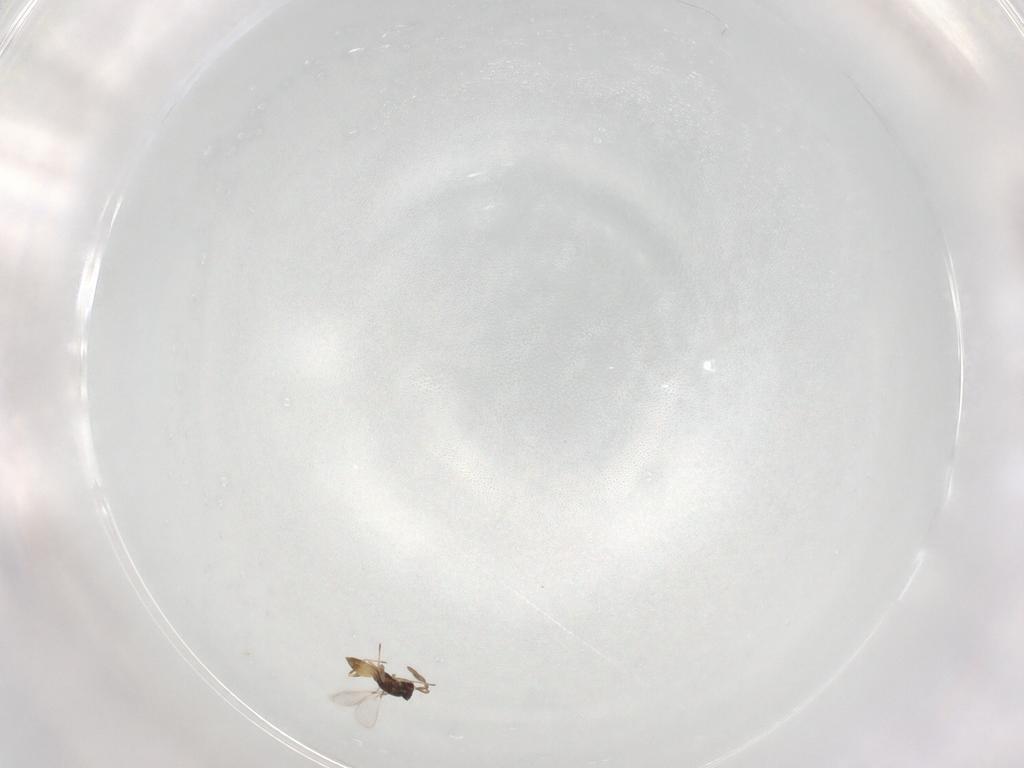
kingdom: Animalia
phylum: Arthropoda
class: Insecta
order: Hymenoptera
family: Mymaridae
